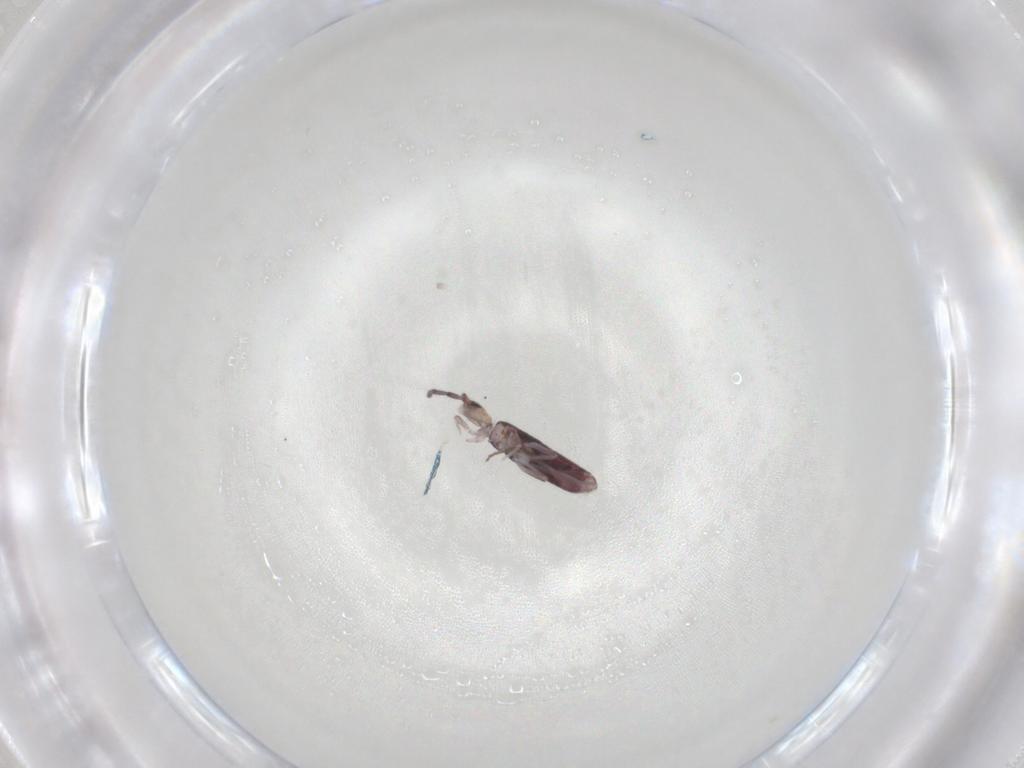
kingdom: Animalia
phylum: Arthropoda
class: Collembola
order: Entomobryomorpha
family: Entomobryidae
